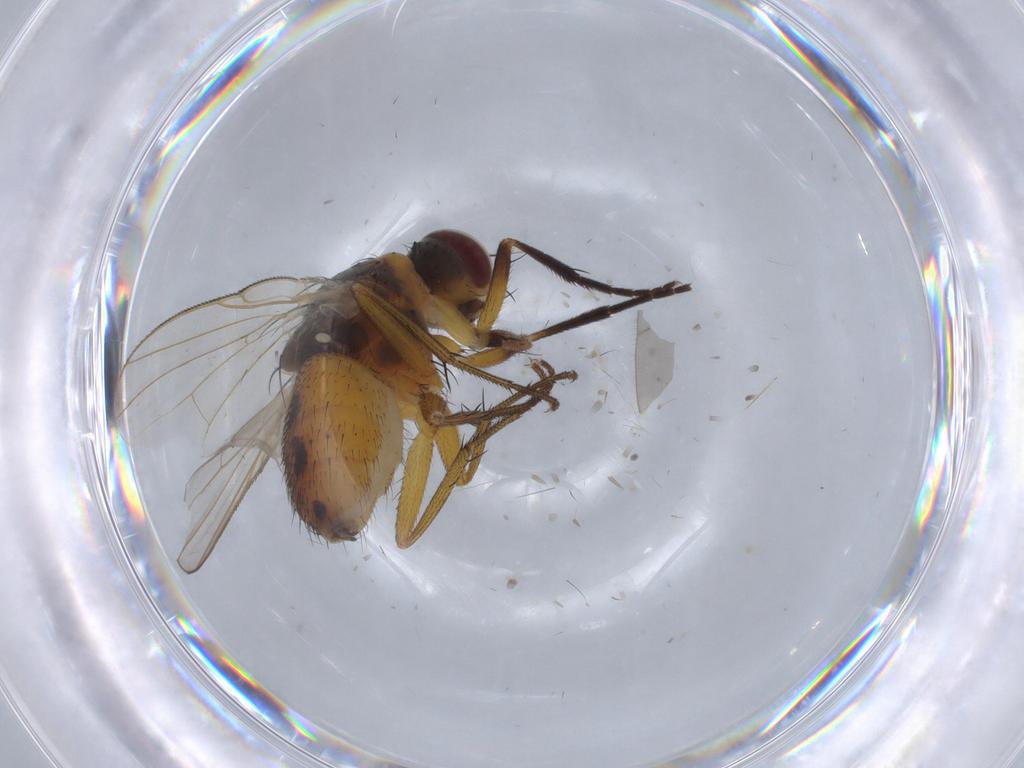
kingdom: Animalia
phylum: Arthropoda
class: Insecta
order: Diptera
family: Muscidae
